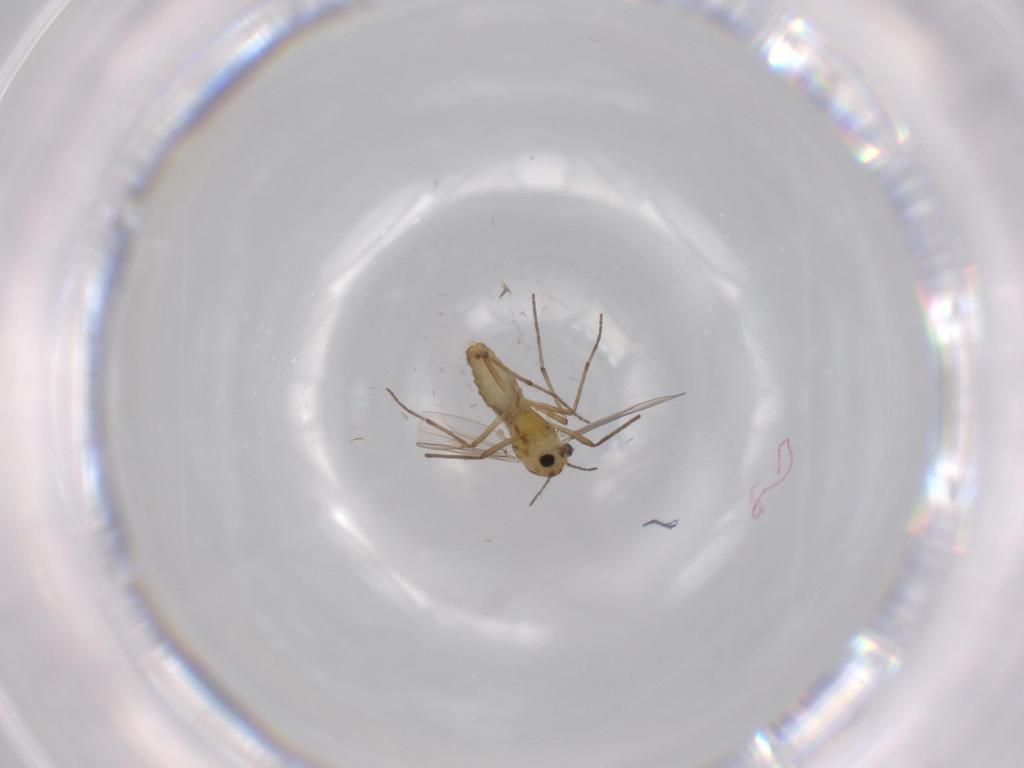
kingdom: Animalia
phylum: Arthropoda
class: Insecta
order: Diptera
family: Chironomidae
